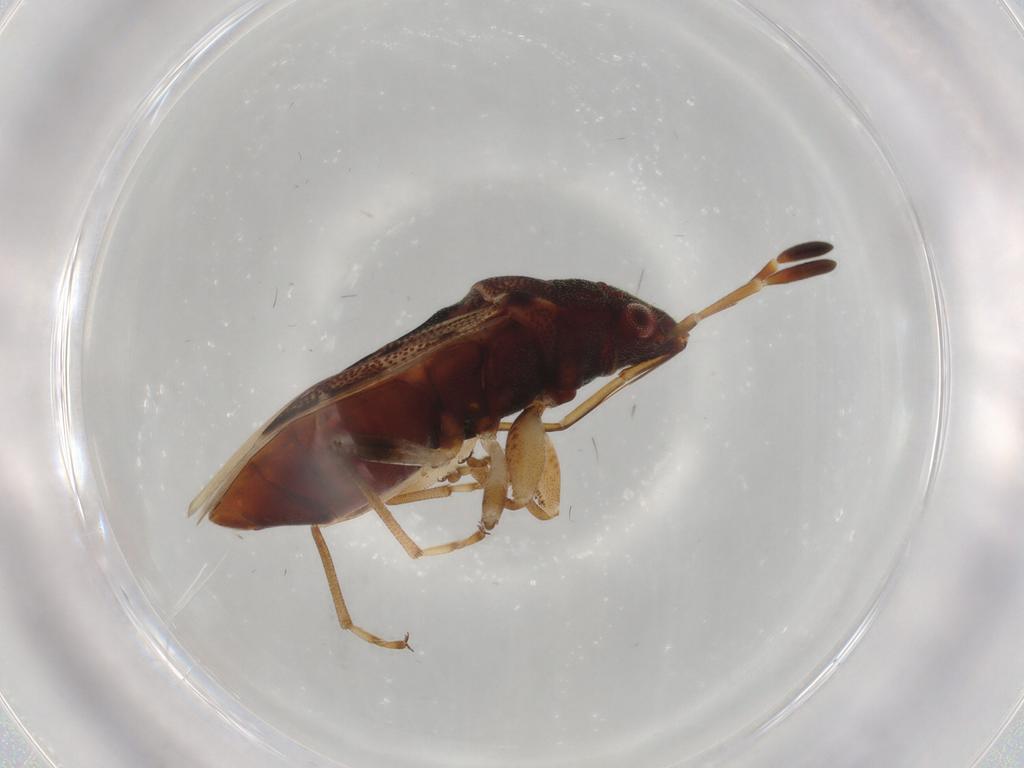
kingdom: Animalia
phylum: Arthropoda
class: Insecta
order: Hemiptera
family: Rhyparochromidae
